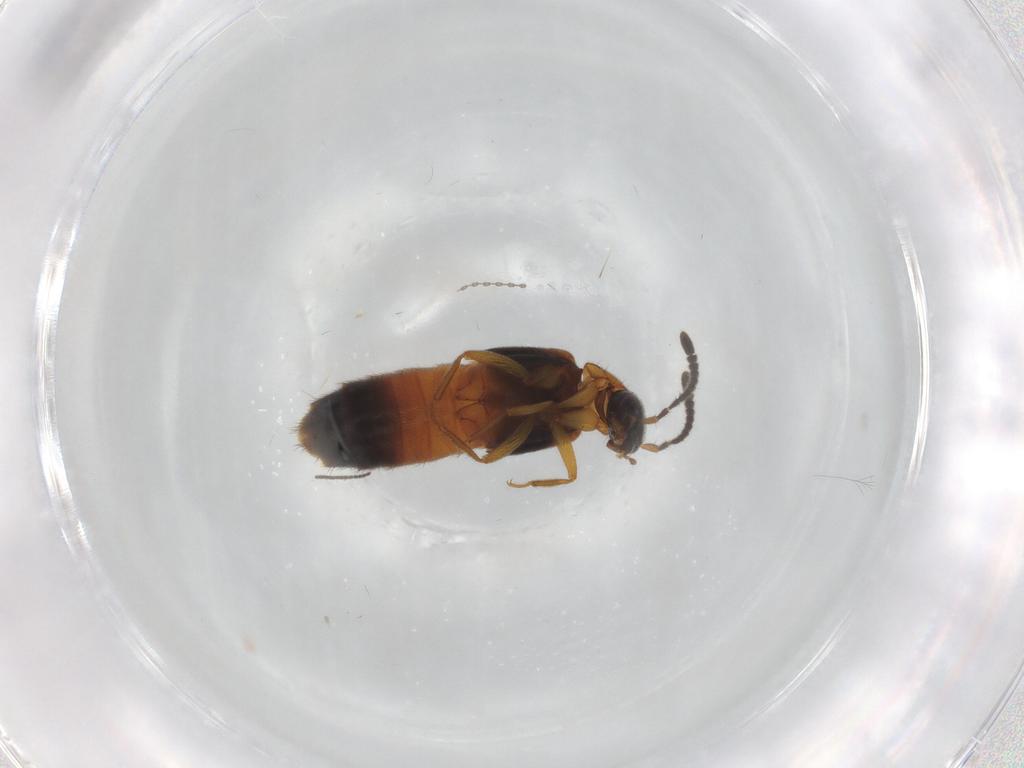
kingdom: Animalia
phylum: Arthropoda
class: Insecta
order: Coleoptera
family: Staphylinidae
